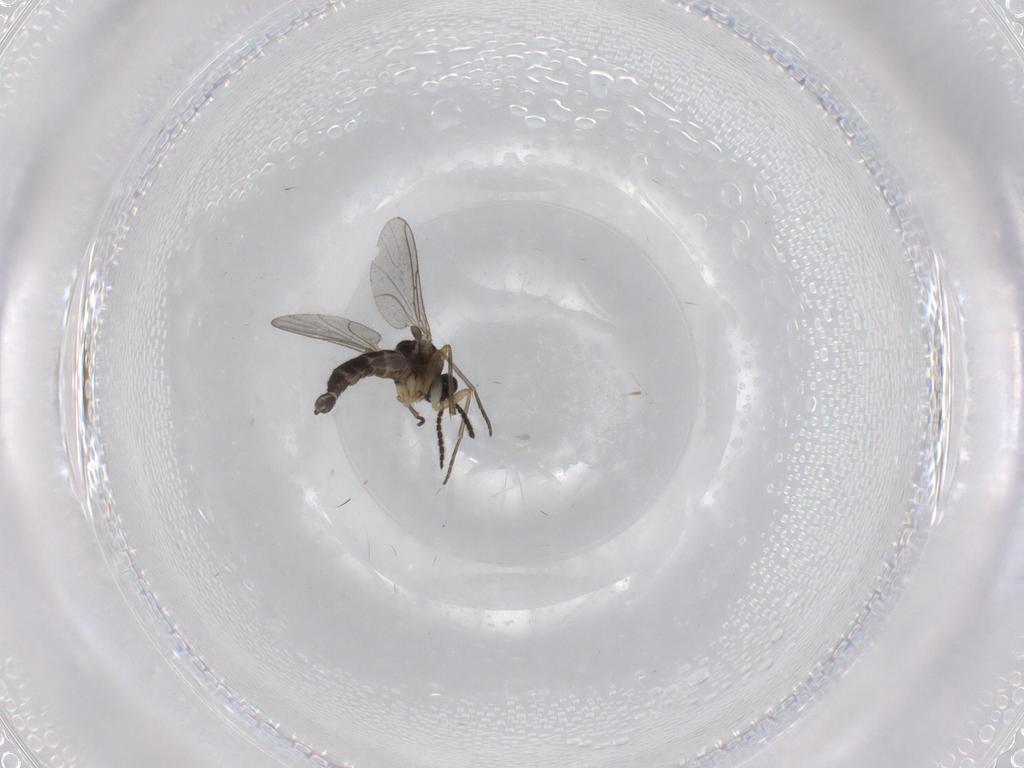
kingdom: Animalia
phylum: Arthropoda
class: Insecta
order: Diptera
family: Sciaridae
